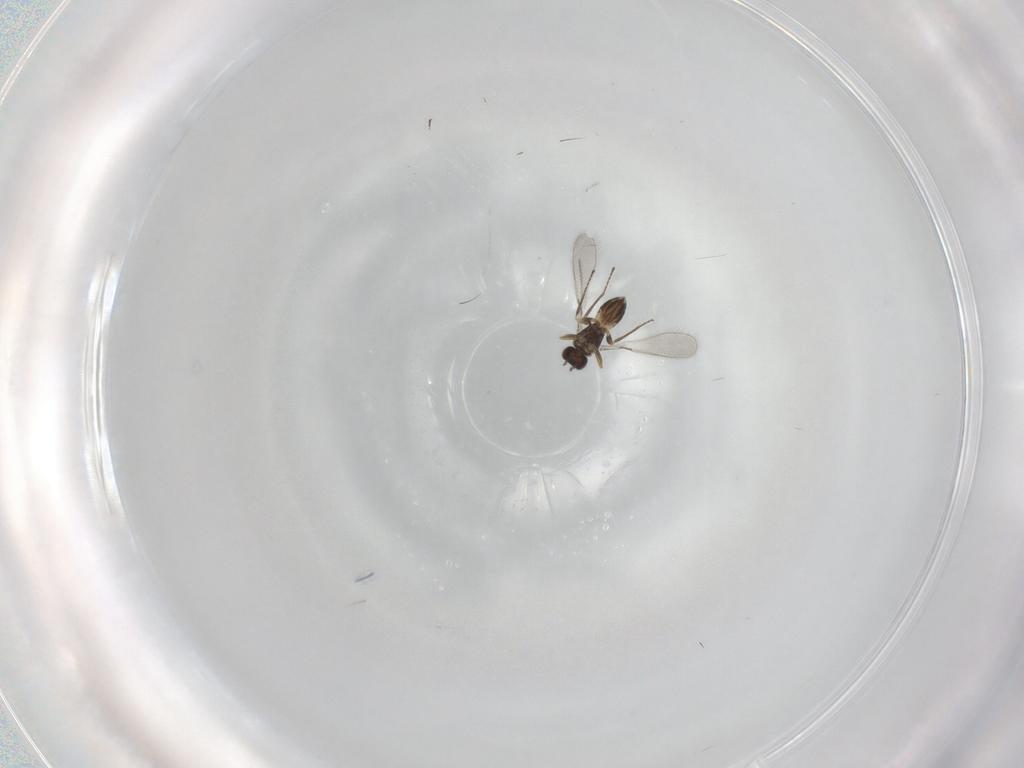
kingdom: Animalia
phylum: Arthropoda
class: Insecta
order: Hymenoptera
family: Mymaridae
